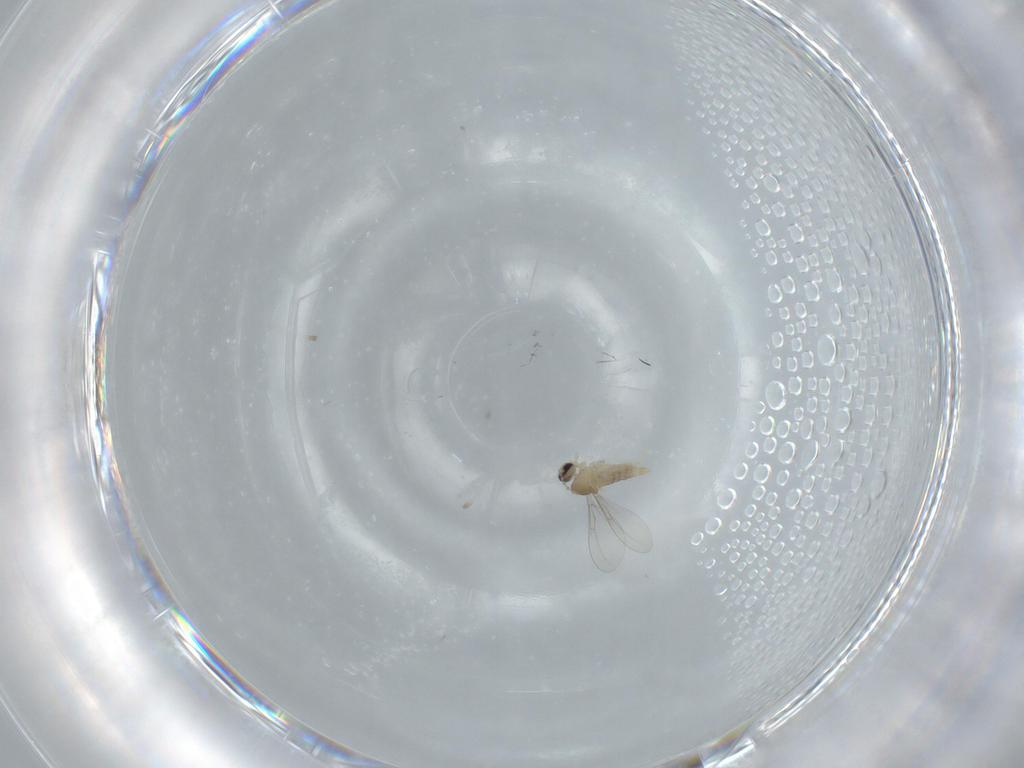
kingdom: Animalia
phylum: Arthropoda
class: Insecta
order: Diptera
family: Cecidomyiidae
